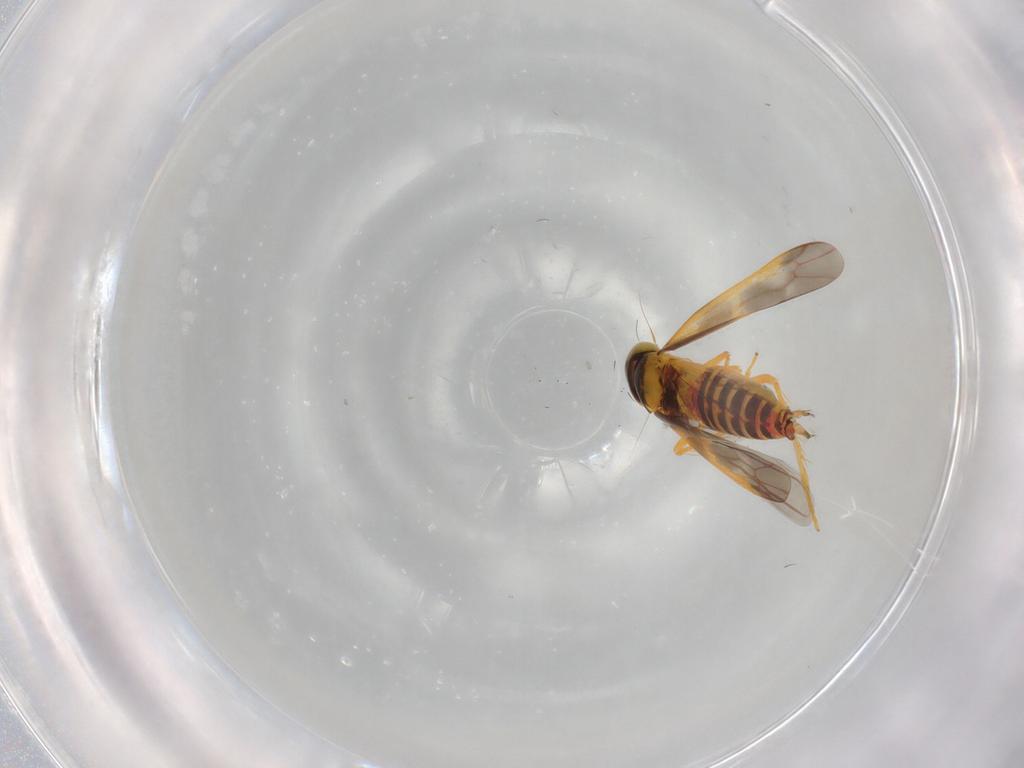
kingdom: Animalia
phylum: Arthropoda
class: Insecta
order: Hemiptera
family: Cicadellidae
